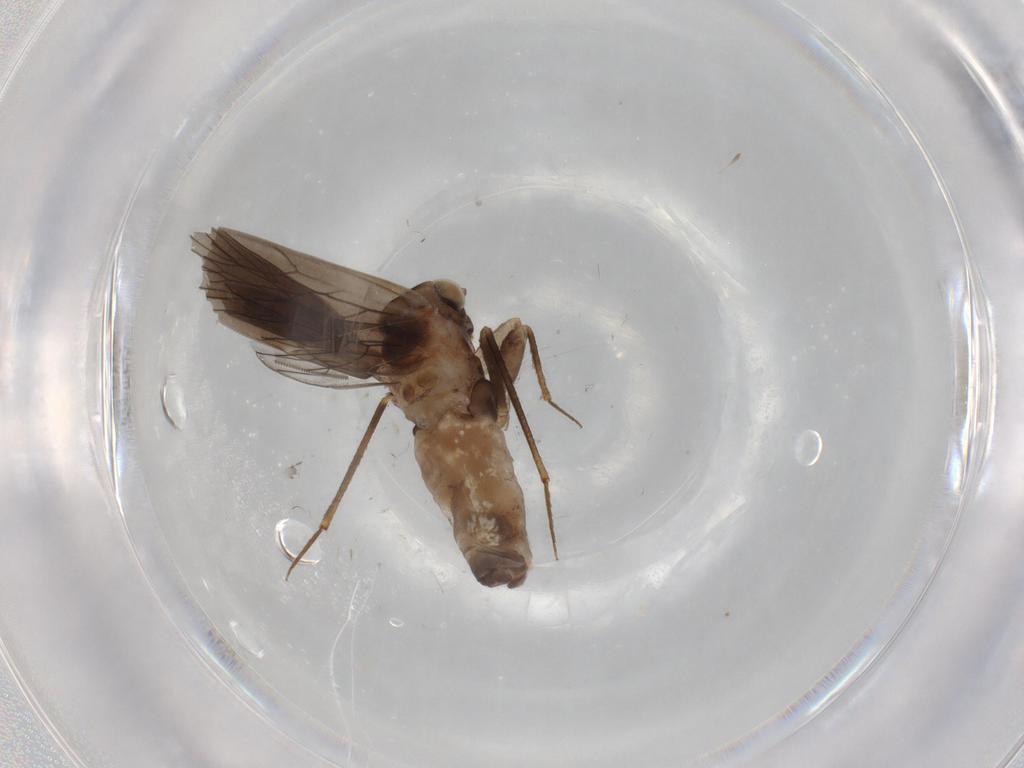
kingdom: Animalia
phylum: Arthropoda
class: Insecta
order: Psocodea
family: Lepidopsocidae
